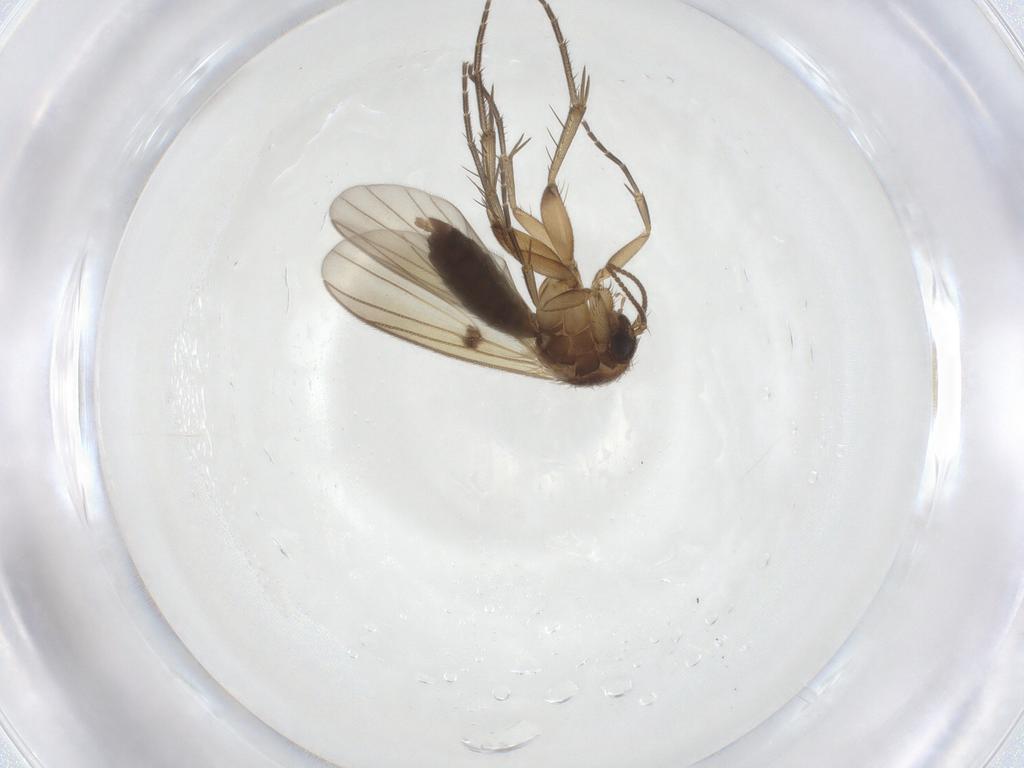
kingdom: Animalia
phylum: Arthropoda
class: Insecta
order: Diptera
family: Mycetophilidae
